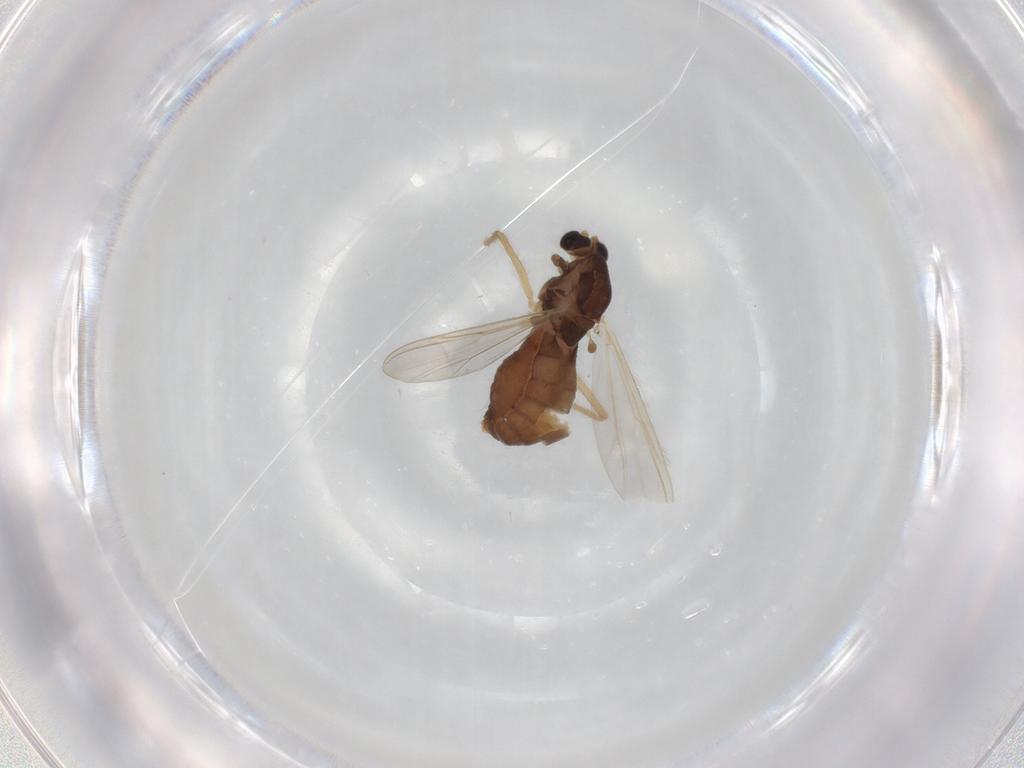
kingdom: Animalia
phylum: Arthropoda
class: Insecta
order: Diptera
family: Chironomidae
